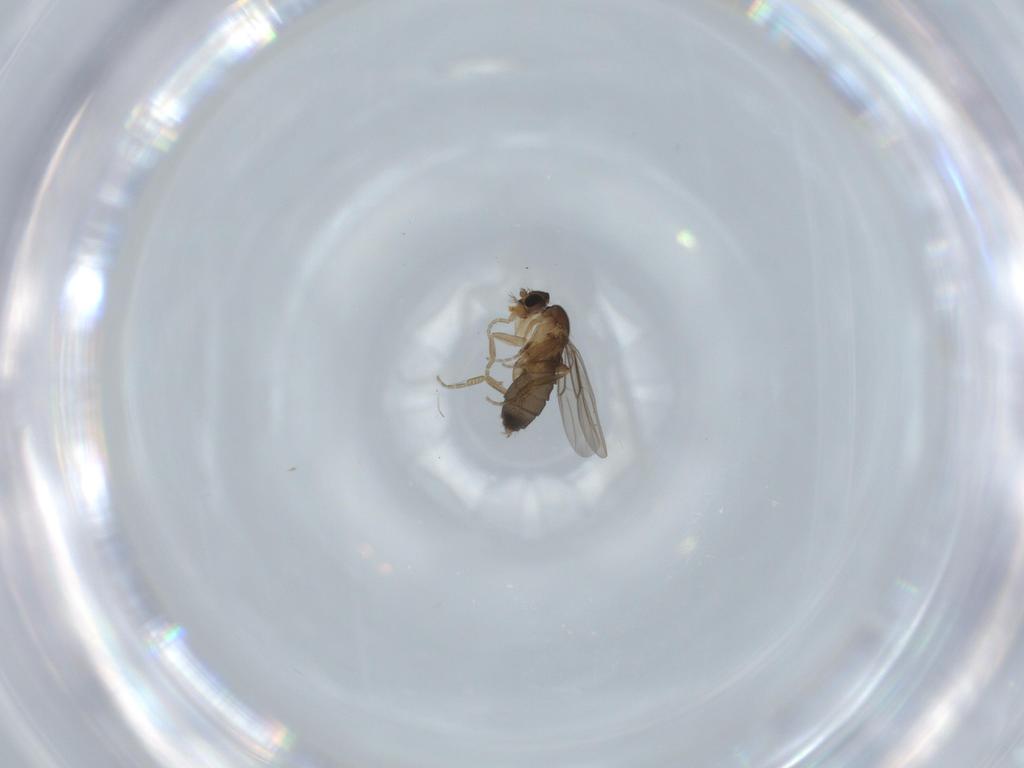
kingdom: Animalia
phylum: Arthropoda
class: Insecta
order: Diptera
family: Phoridae
